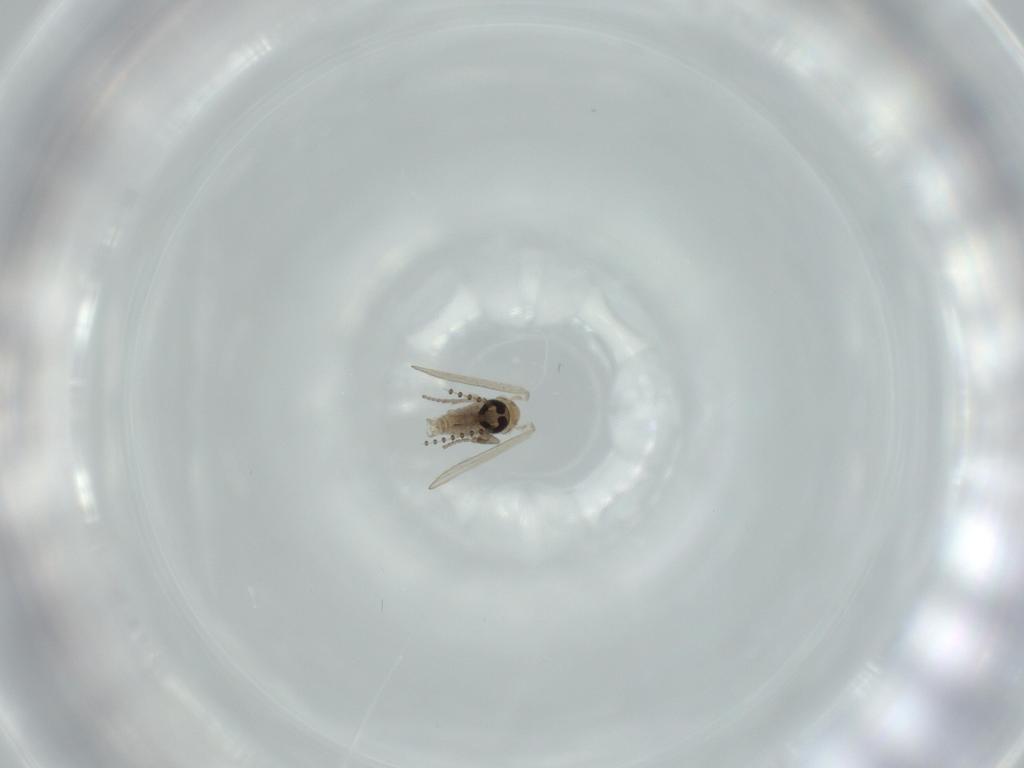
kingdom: Animalia
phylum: Arthropoda
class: Insecta
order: Diptera
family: Psychodidae
